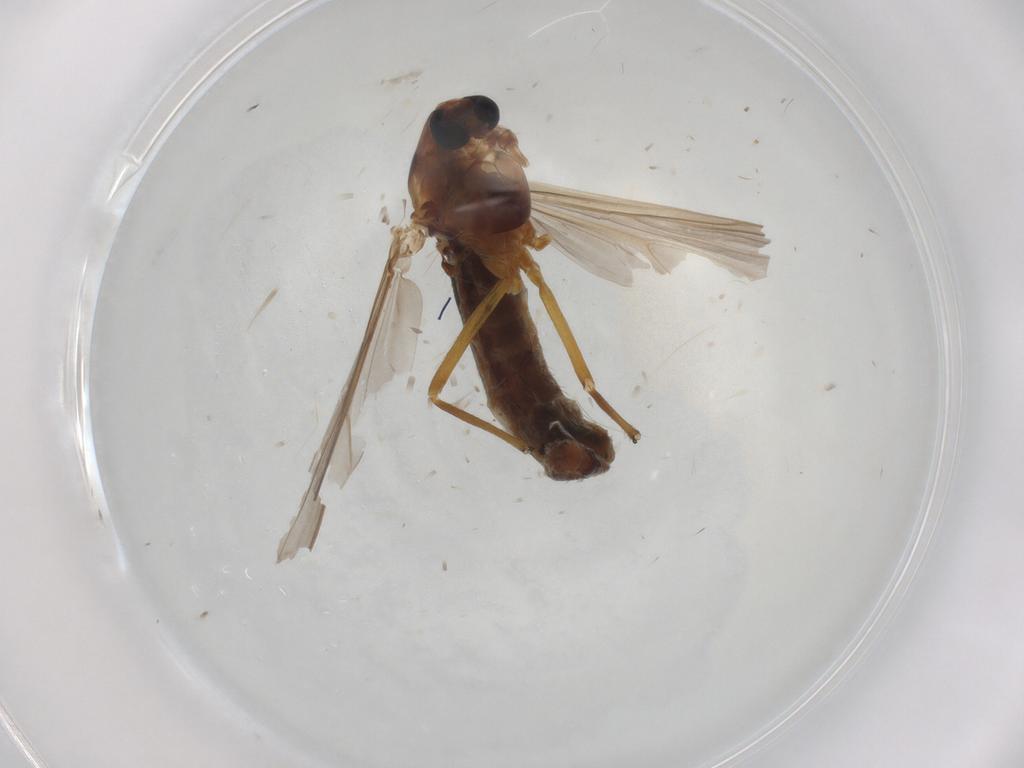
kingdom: Animalia
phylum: Arthropoda
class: Insecta
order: Diptera
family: Chironomidae
